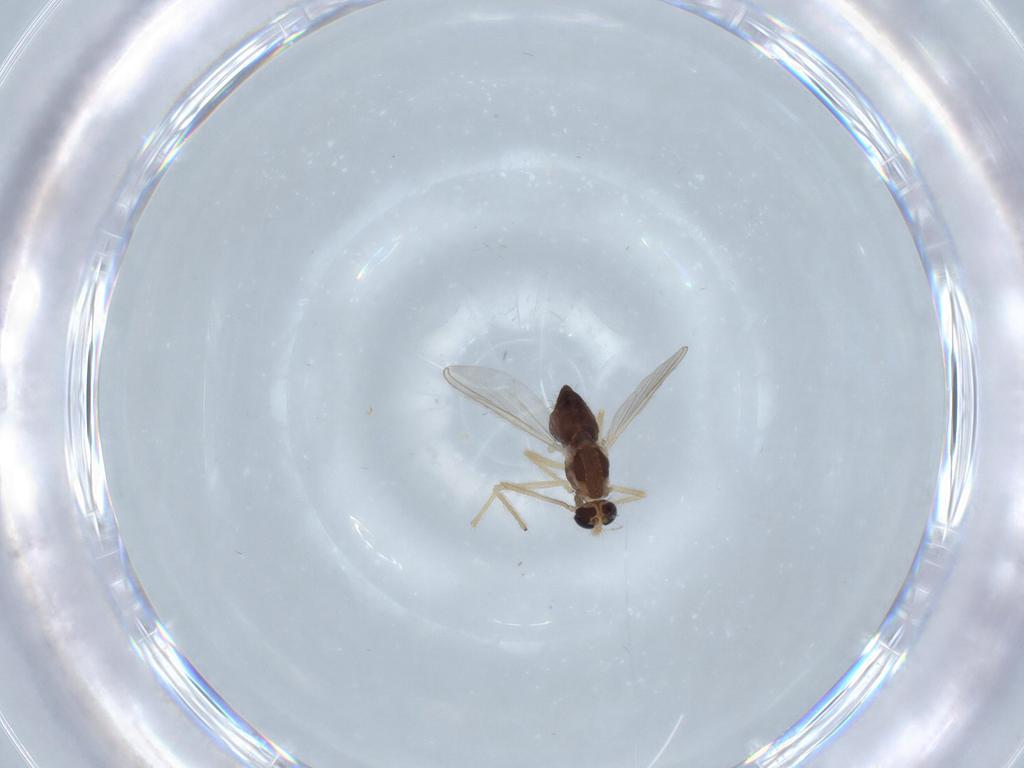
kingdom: Animalia
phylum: Arthropoda
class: Insecta
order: Diptera
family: Chironomidae
